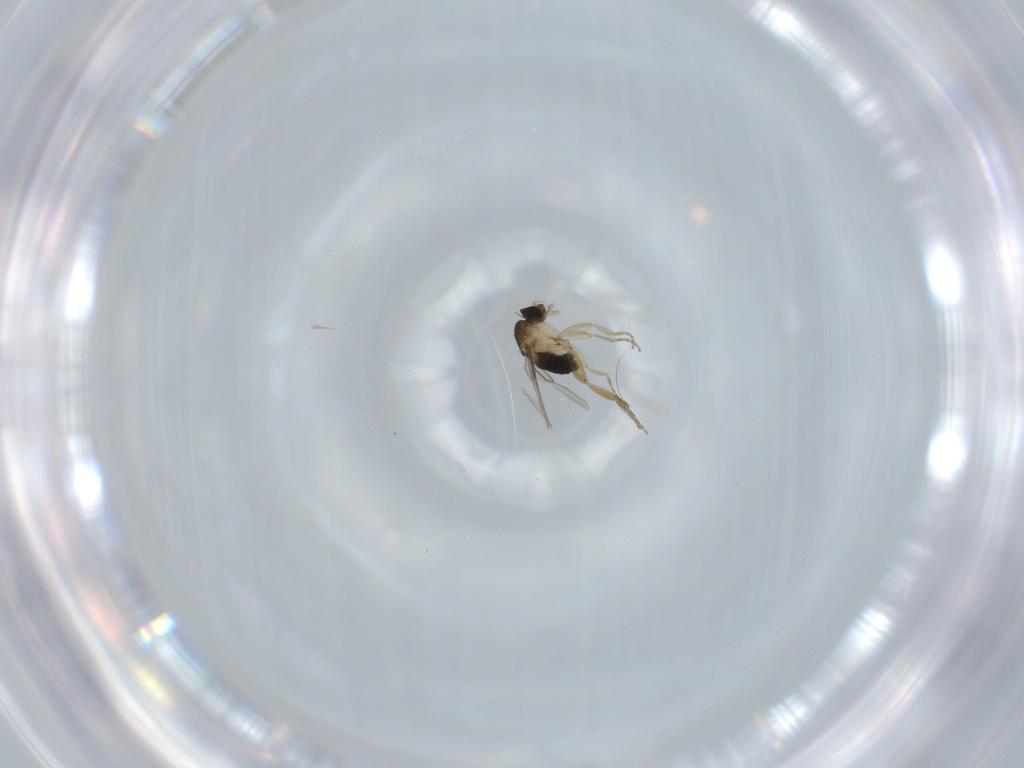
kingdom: Animalia
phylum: Arthropoda
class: Insecta
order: Diptera
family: Phoridae
